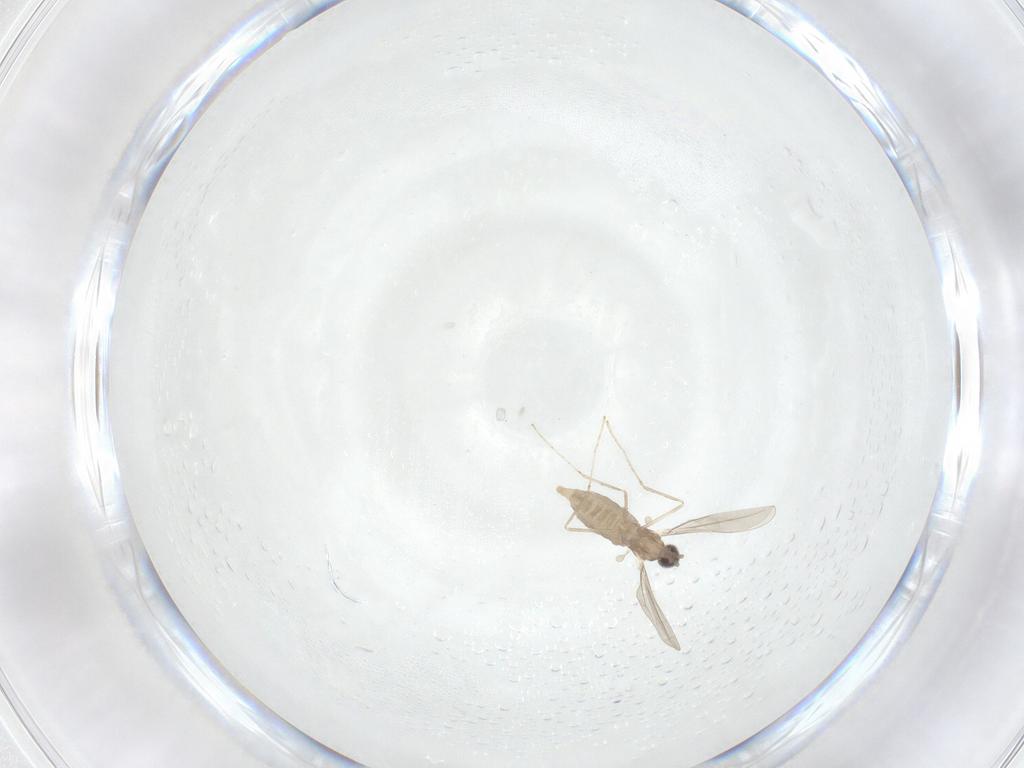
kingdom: Animalia
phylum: Arthropoda
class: Insecta
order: Diptera
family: Cecidomyiidae
